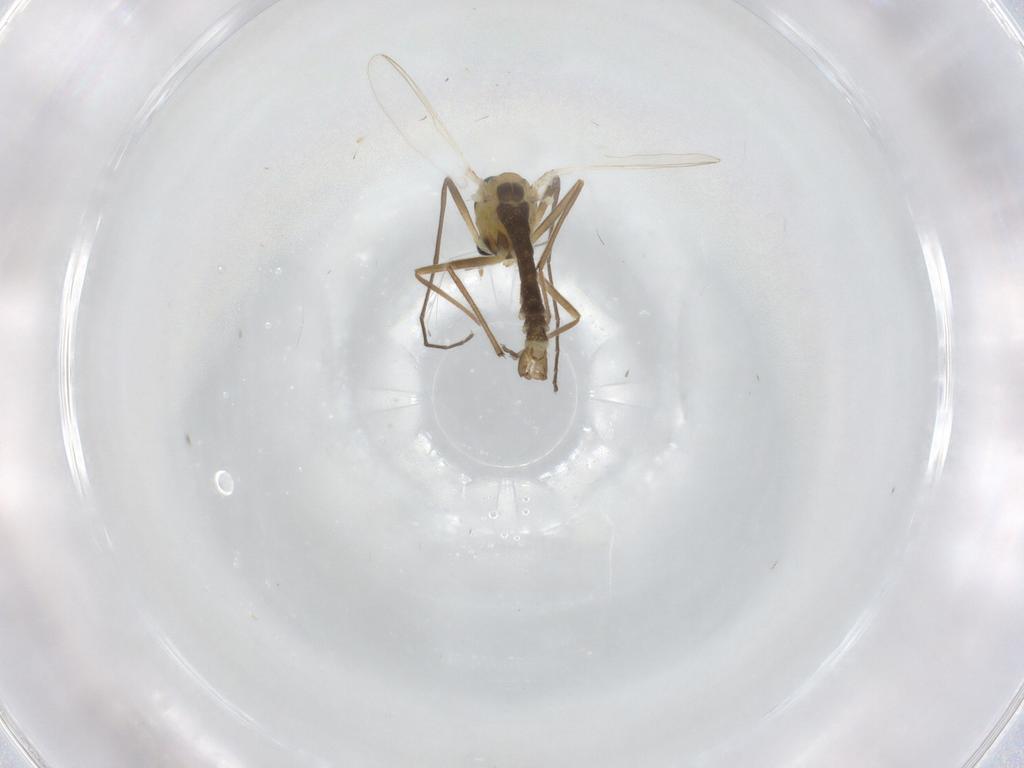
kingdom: Animalia
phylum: Arthropoda
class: Insecta
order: Diptera
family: Chironomidae
